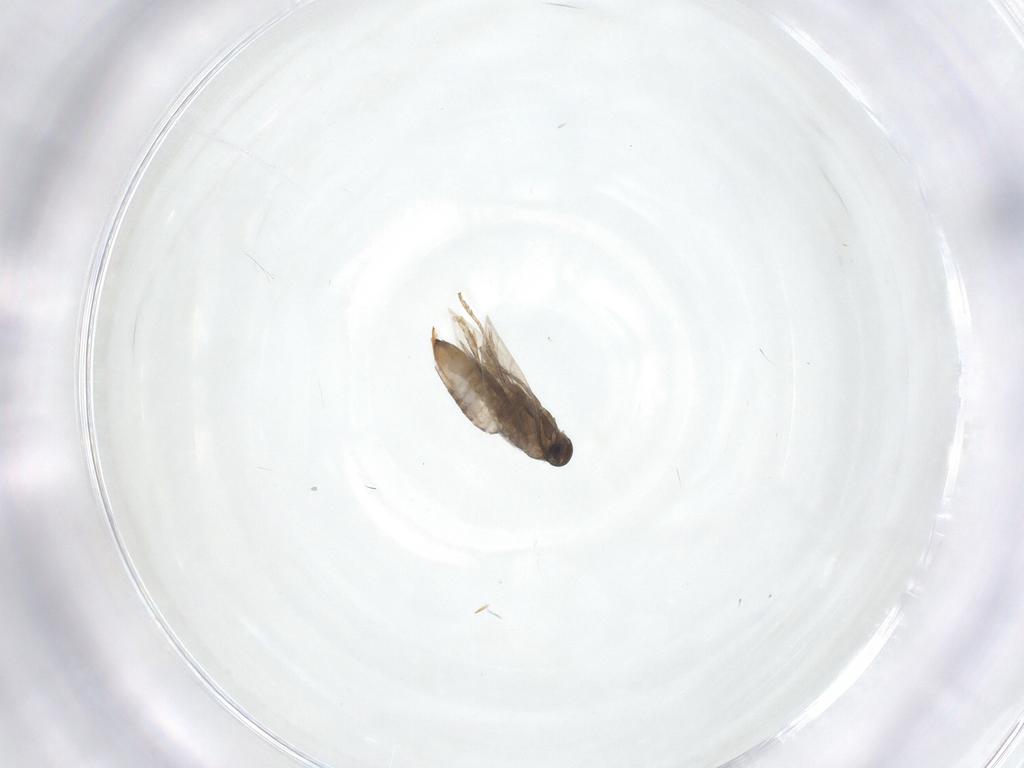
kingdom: Animalia
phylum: Arthropoda
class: Insecta
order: Lepidoptera
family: Heliozelidae
